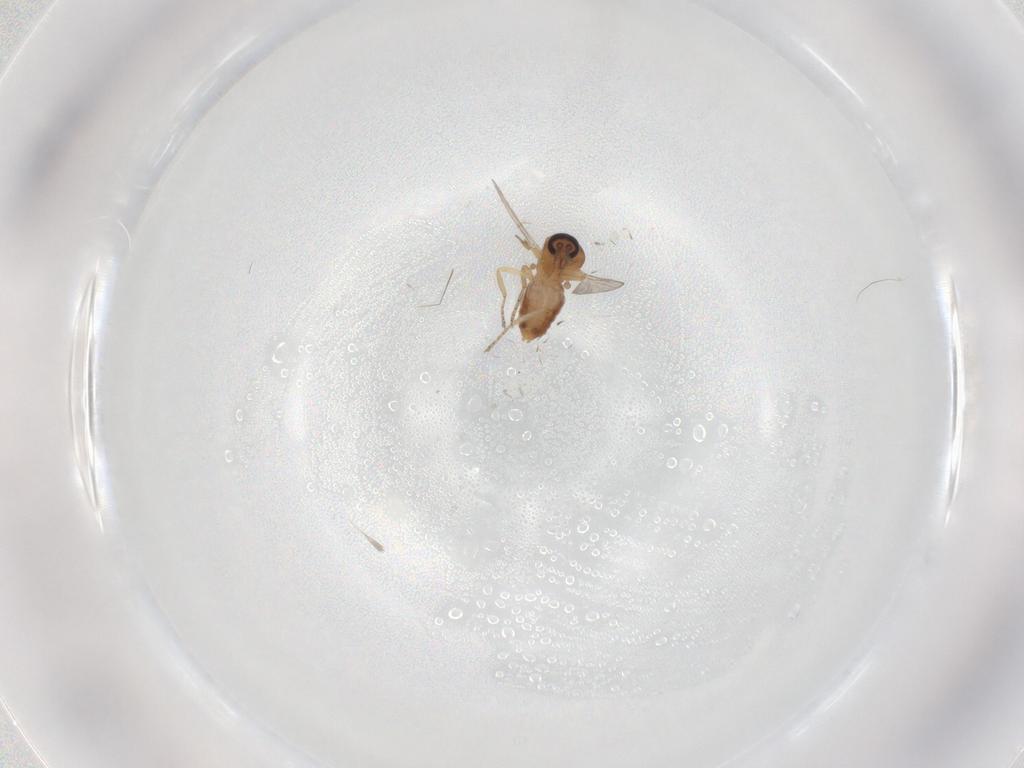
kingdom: Animalia
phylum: Arthropoda
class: Insecta
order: Diptera
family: Ceratopogonidae
